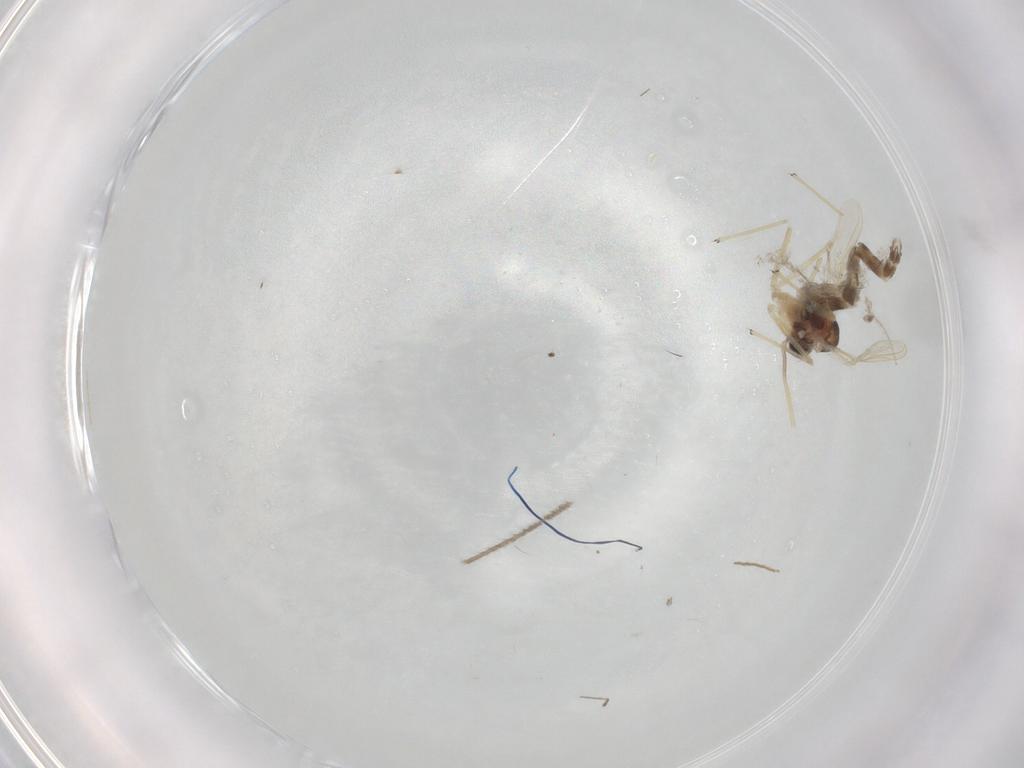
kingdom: Animalia
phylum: Arthropoda
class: Insecta
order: Diptera
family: Chironomidae
